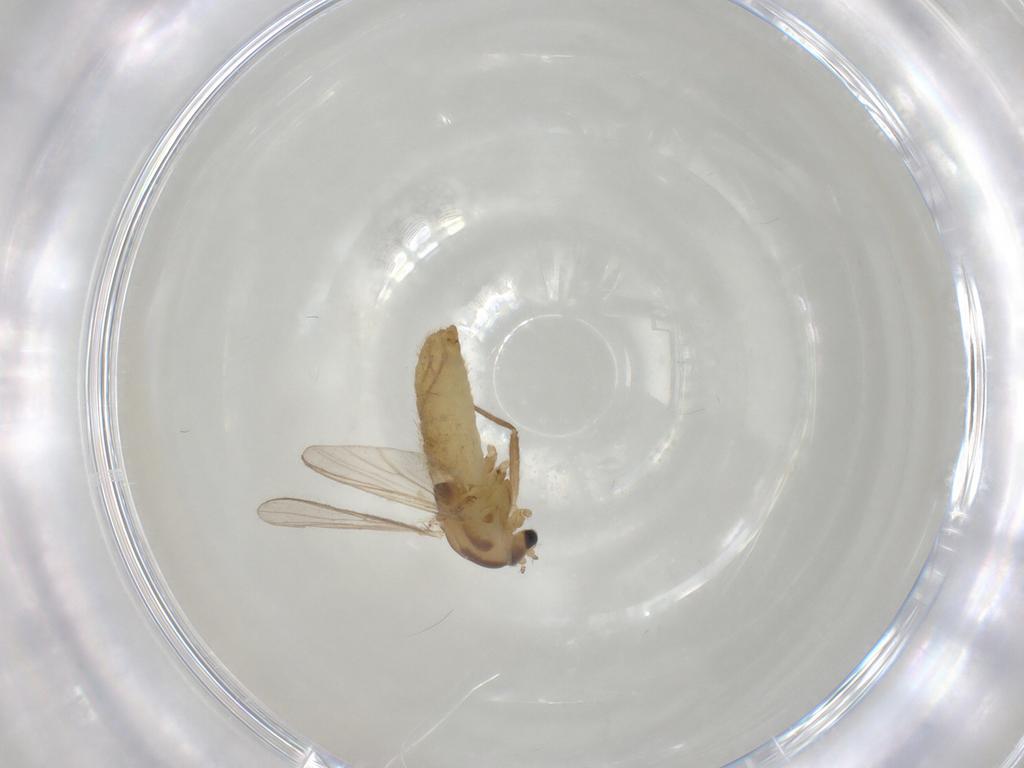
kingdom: Animalia
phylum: Arthropoda
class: Insecta
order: Diptera
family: Chironomidae
